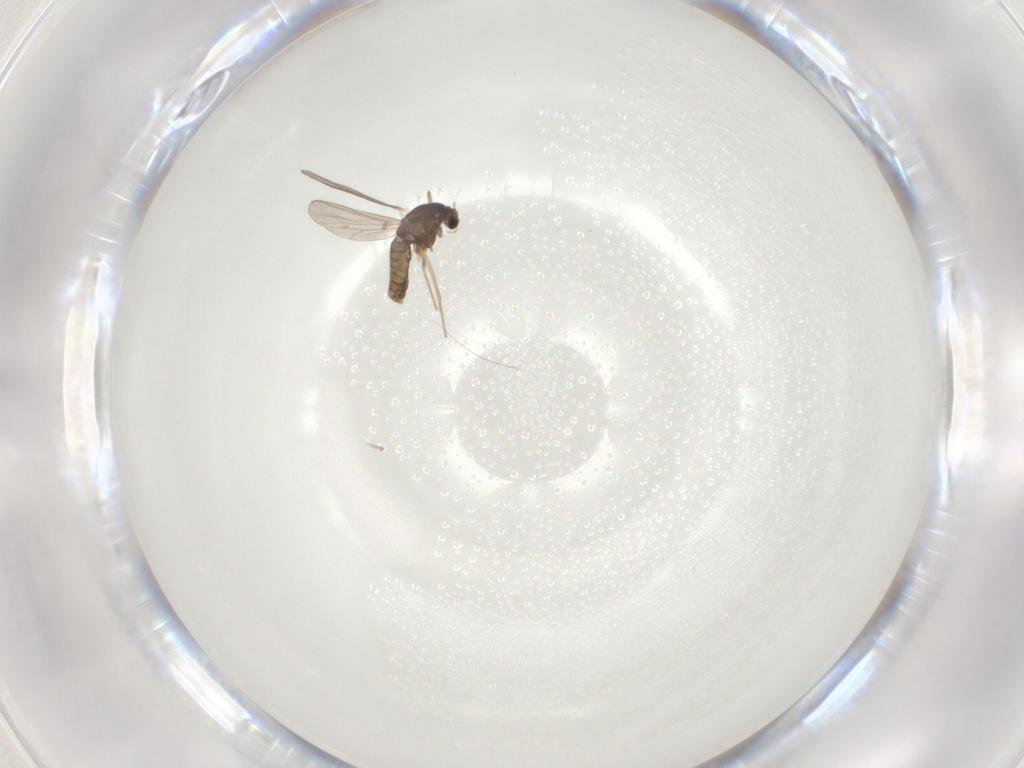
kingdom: Animalia
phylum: Arthropoda
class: Insecta
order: Diptera
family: Chironomidae
